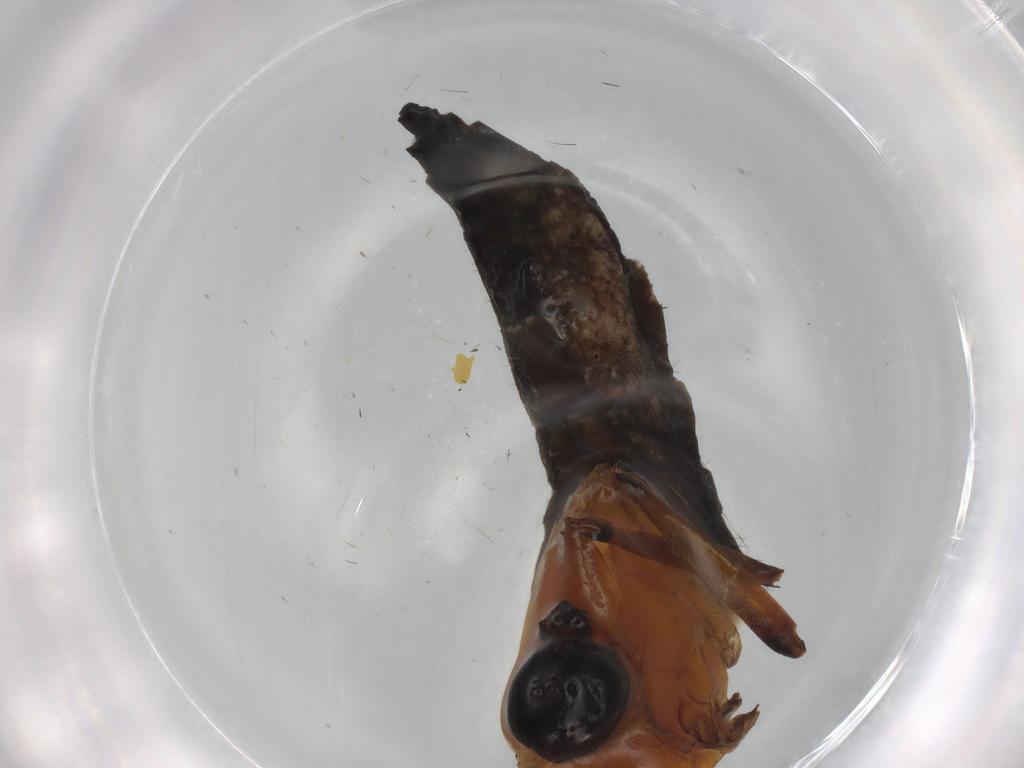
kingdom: Animalia
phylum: Arthropoda
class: Insecta
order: Diptera
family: Sciaridae
